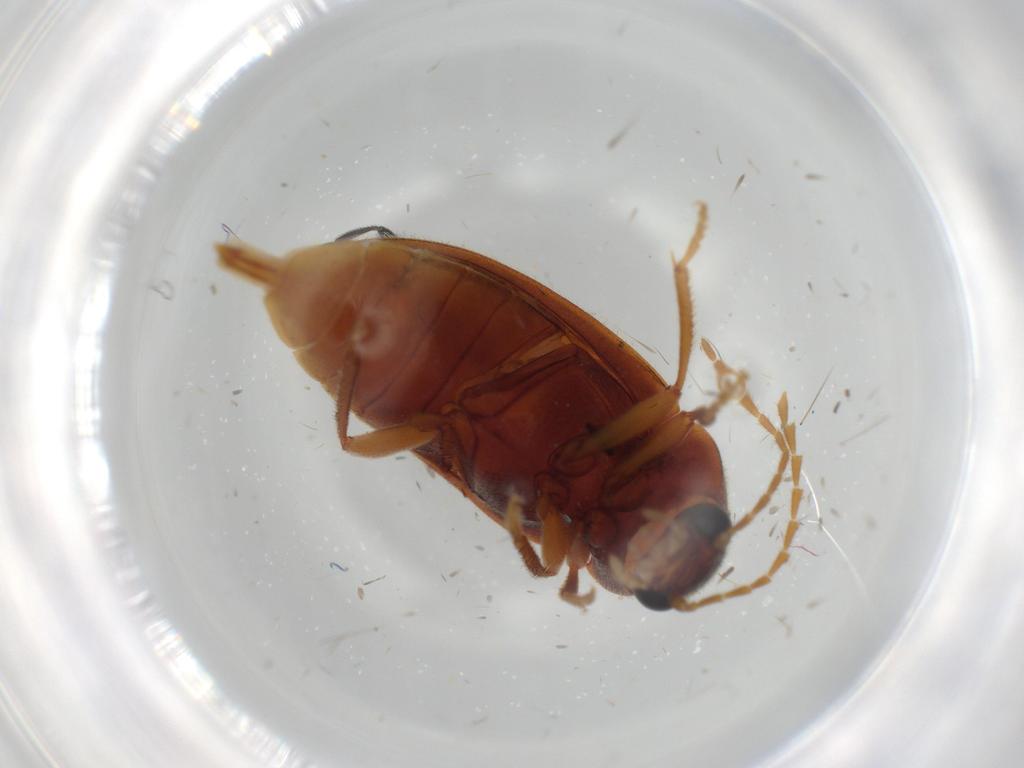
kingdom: Animalia
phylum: Arthropoda
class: Insecta
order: Coleoptera
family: Ptilodactylidae
